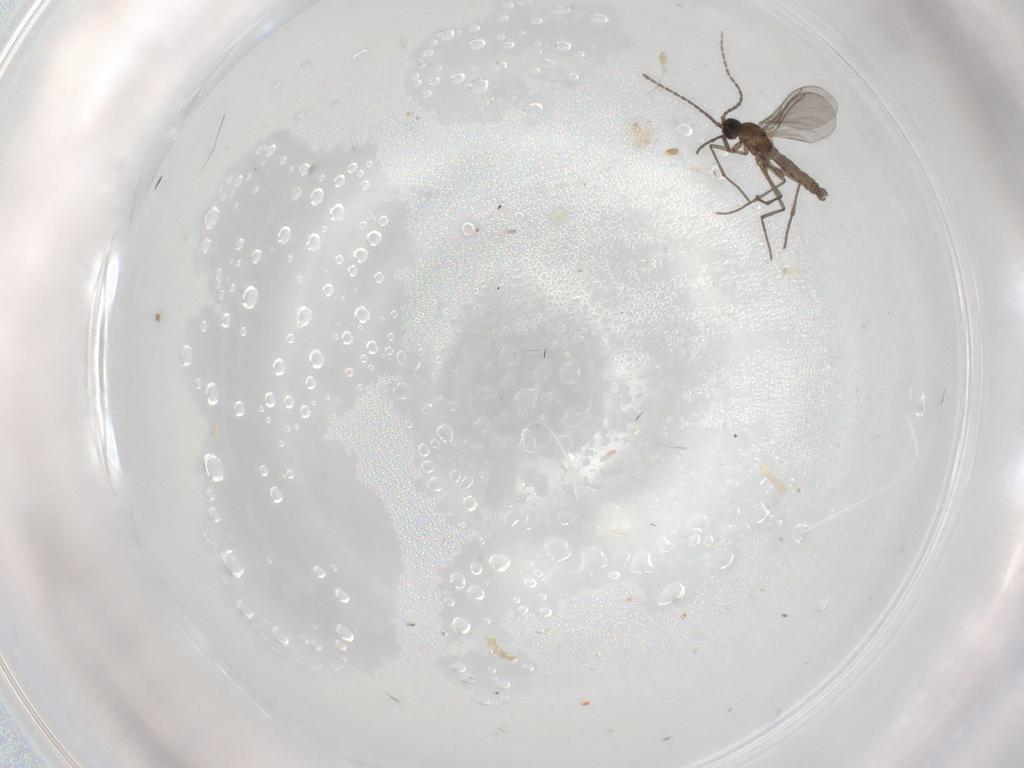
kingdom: Animalia
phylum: Arthropoda
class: Insecta
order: Diptera
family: Sciaridae
